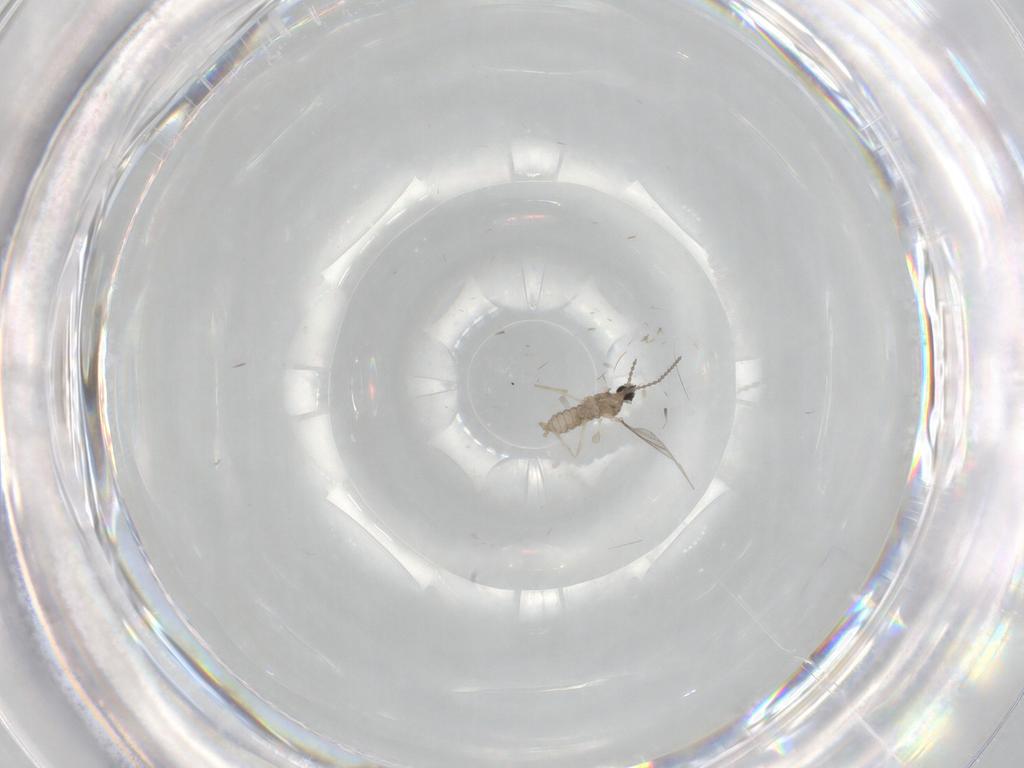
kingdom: Animalia
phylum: Arthropoda
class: Insecta
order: Diptera
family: Cecidomyiidae
